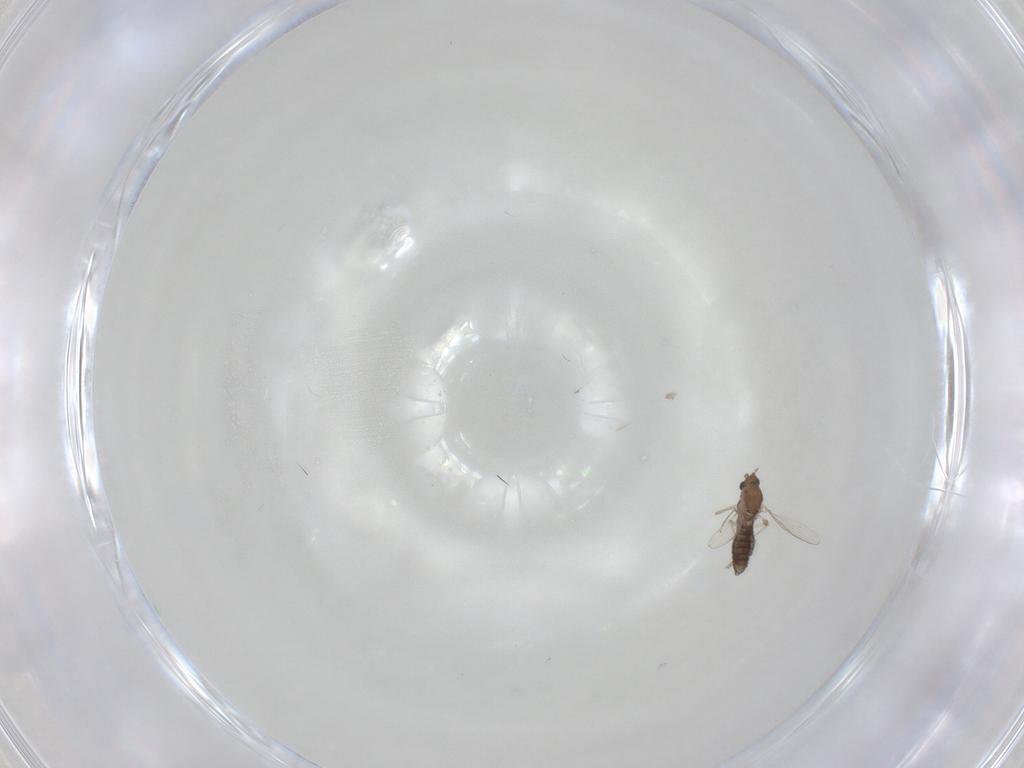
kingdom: Animalia
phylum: Arthropoda
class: Insecta
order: Diptera
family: Chironomidae
